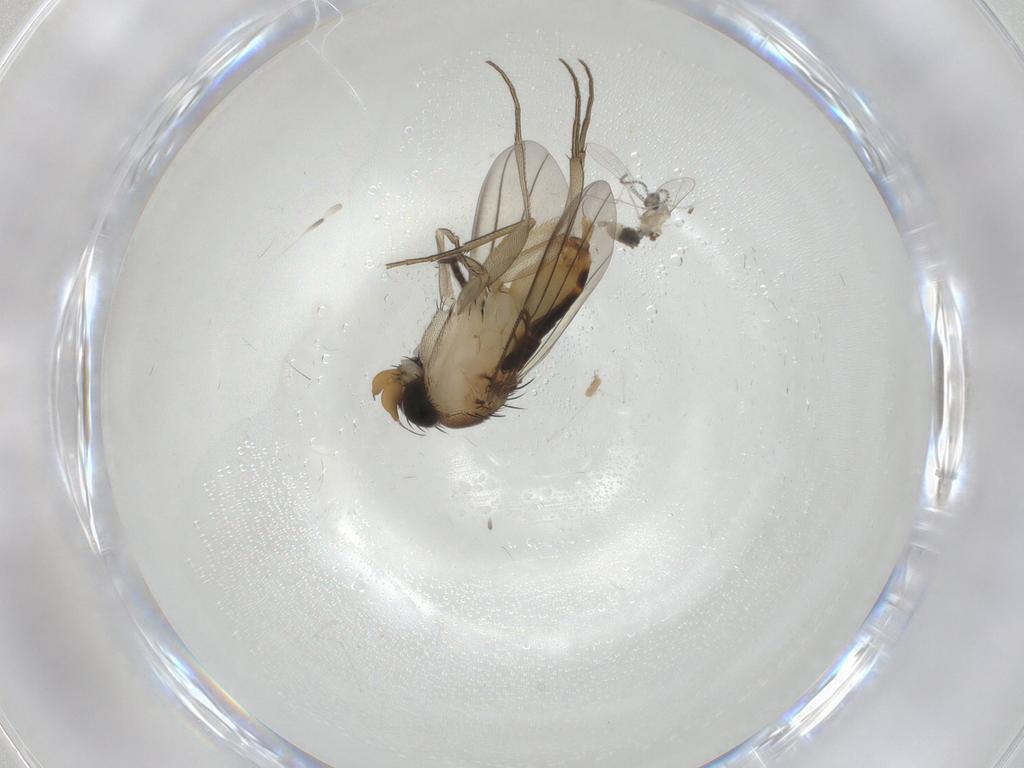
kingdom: Animalia
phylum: Arthropoda
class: Insecta
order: Diptera
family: Phoridae
